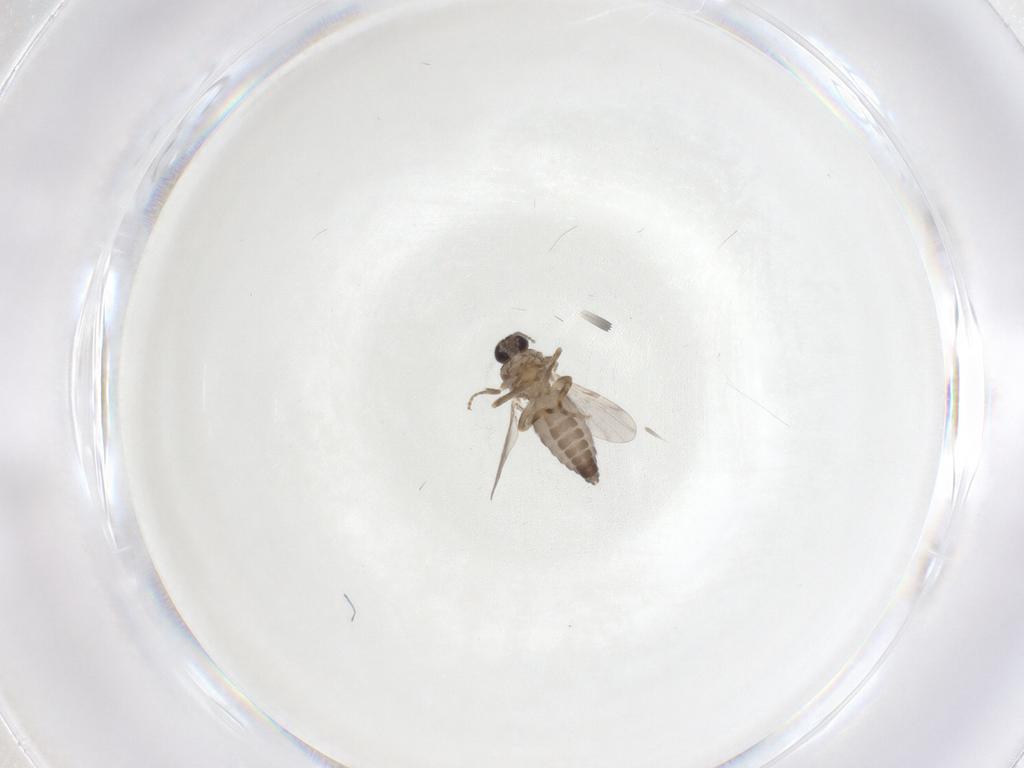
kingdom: Animalia
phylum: Arthropoda
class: Insecta
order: Diptera
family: Ceratopogonidae
